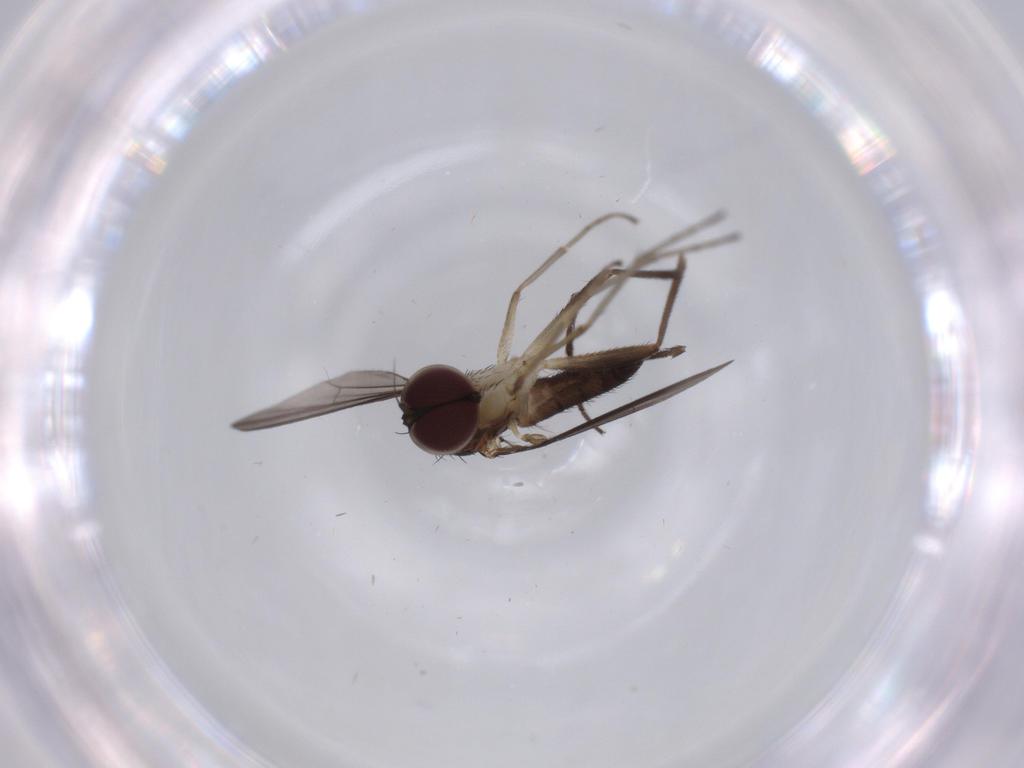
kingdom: Animalia
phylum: Arthropoda
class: Insecta
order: Diptera
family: Dolichopodidae
